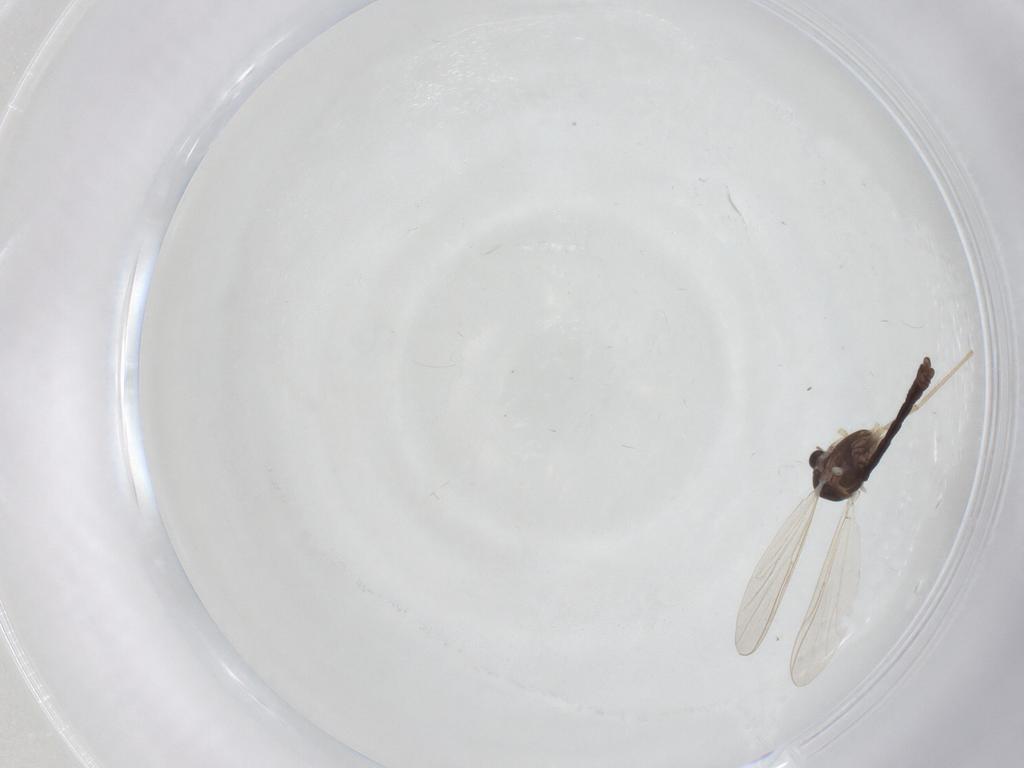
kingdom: Animalia
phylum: Arthropoda
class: Insecta
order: Diptera
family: Chironomidae
